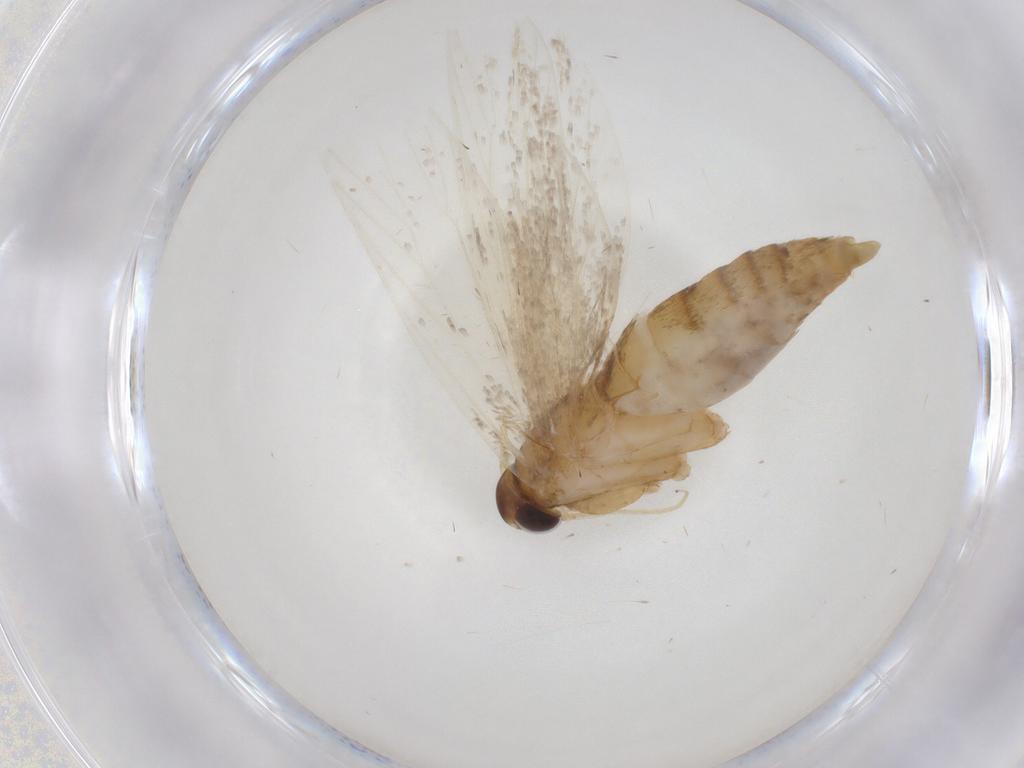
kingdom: Animalia
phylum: Arthropoda
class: Insecta
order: Lepidoptera
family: Oecophoridae
